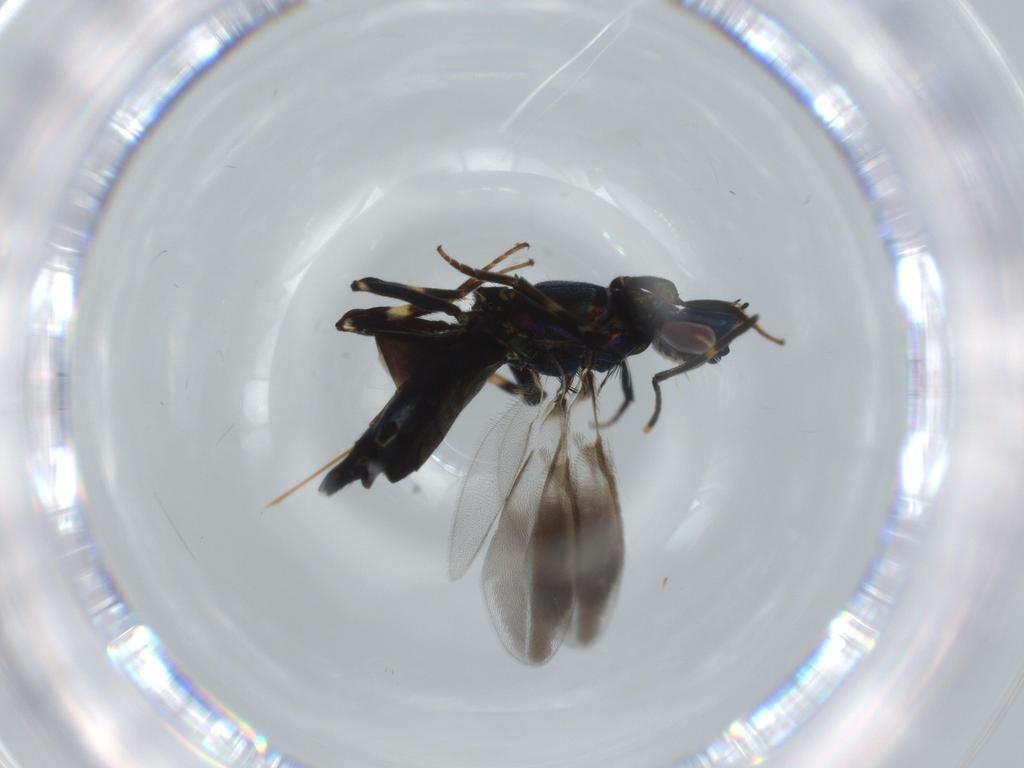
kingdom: Animalia
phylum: Arthropoda
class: Insecta
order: Hymenoptera
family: Eupelmidae
